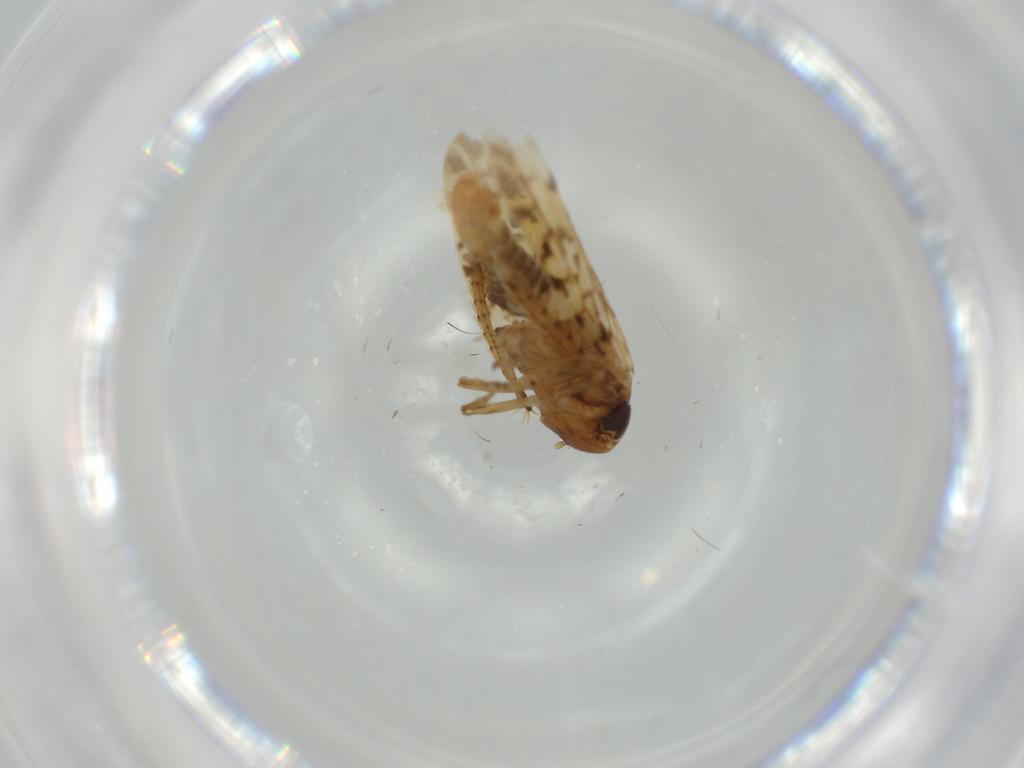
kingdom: Animalia
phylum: Arthropoda
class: Insecta
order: Hemiptera
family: Cicadellidae
